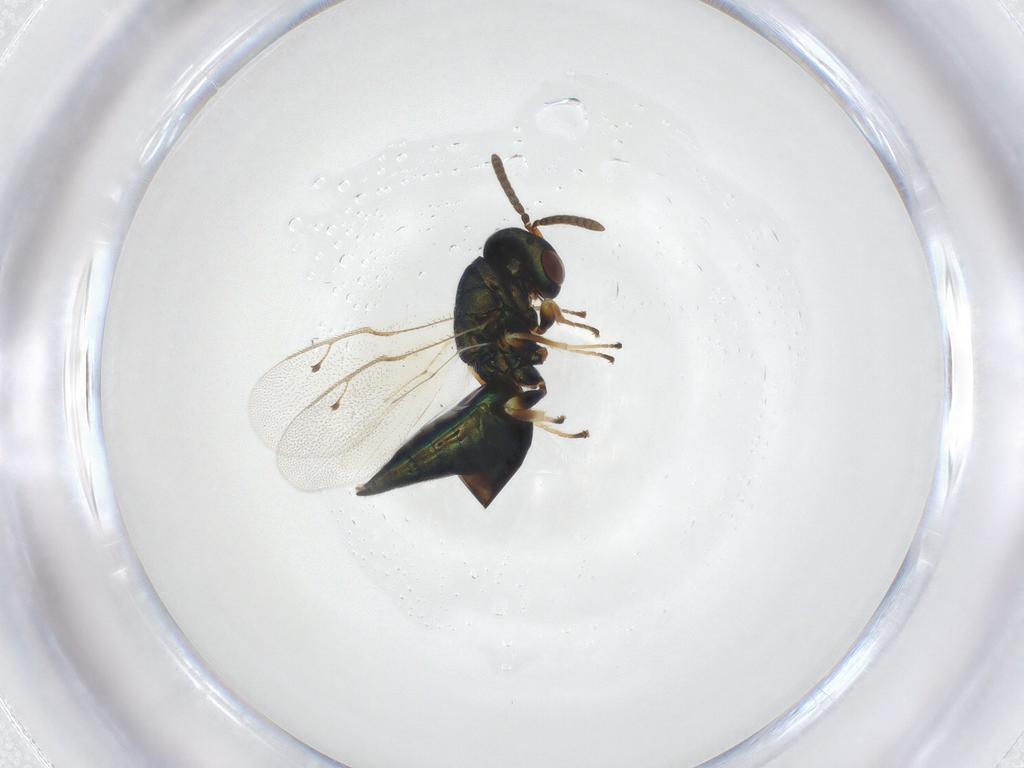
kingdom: Animalia
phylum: Arthropoda
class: Insecta
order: Hymenoptera
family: Pteromalidae
